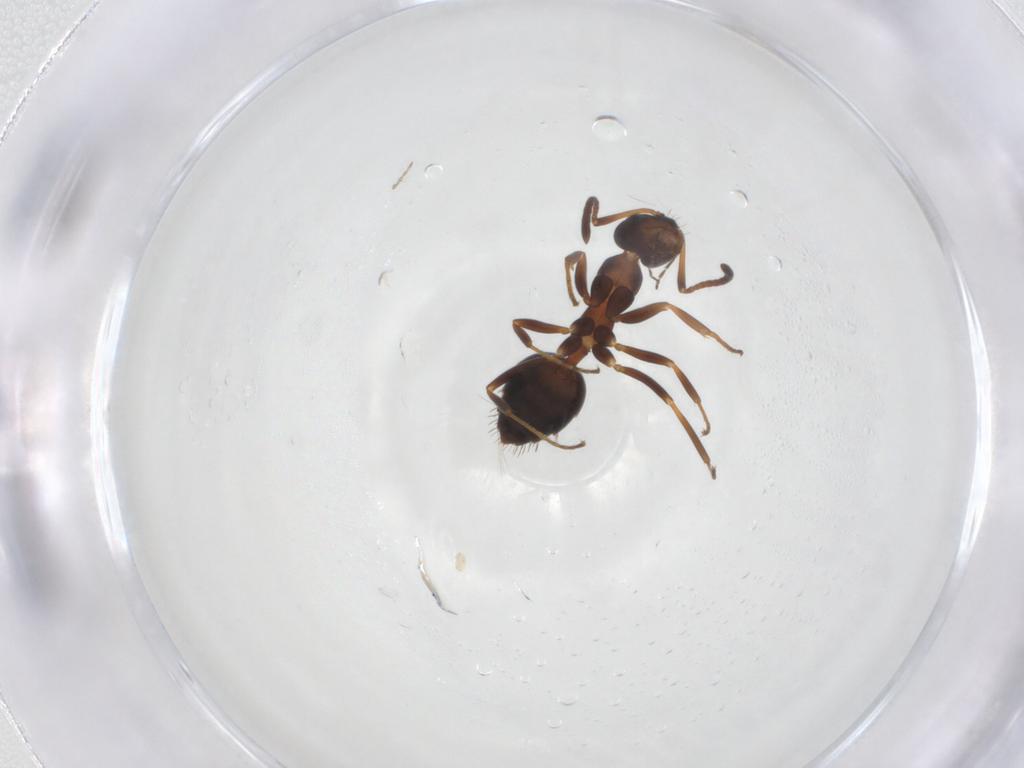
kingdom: Animalia
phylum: Arthropoda
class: Insecta
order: Hymenoptera
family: Formicidae
